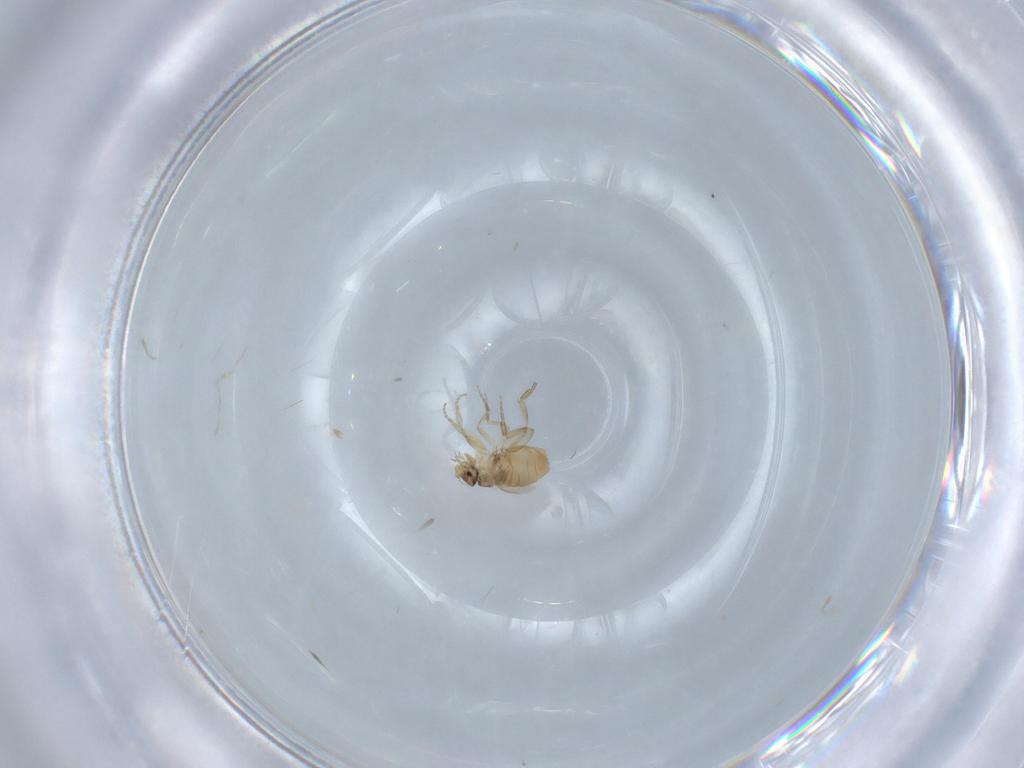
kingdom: Animalia
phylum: Arthropoda
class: Insecta
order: Diptera
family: Phoridae
